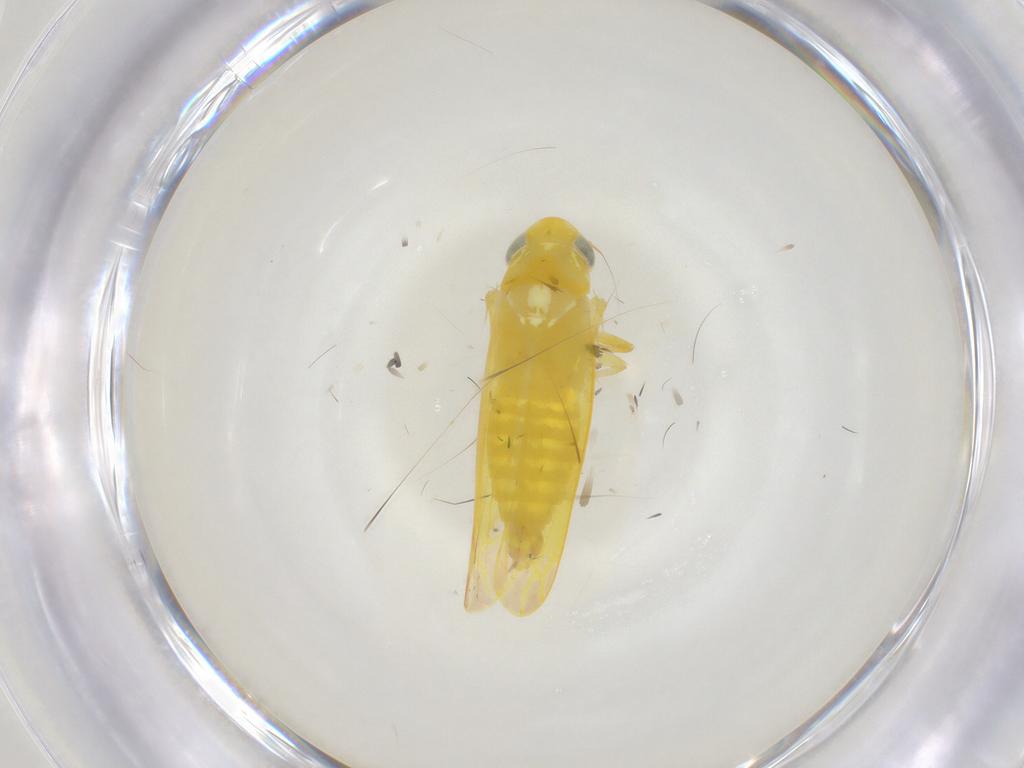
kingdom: Animalia
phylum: Arthropoda
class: Insecta
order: Hemiptera
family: Cicadellidae
